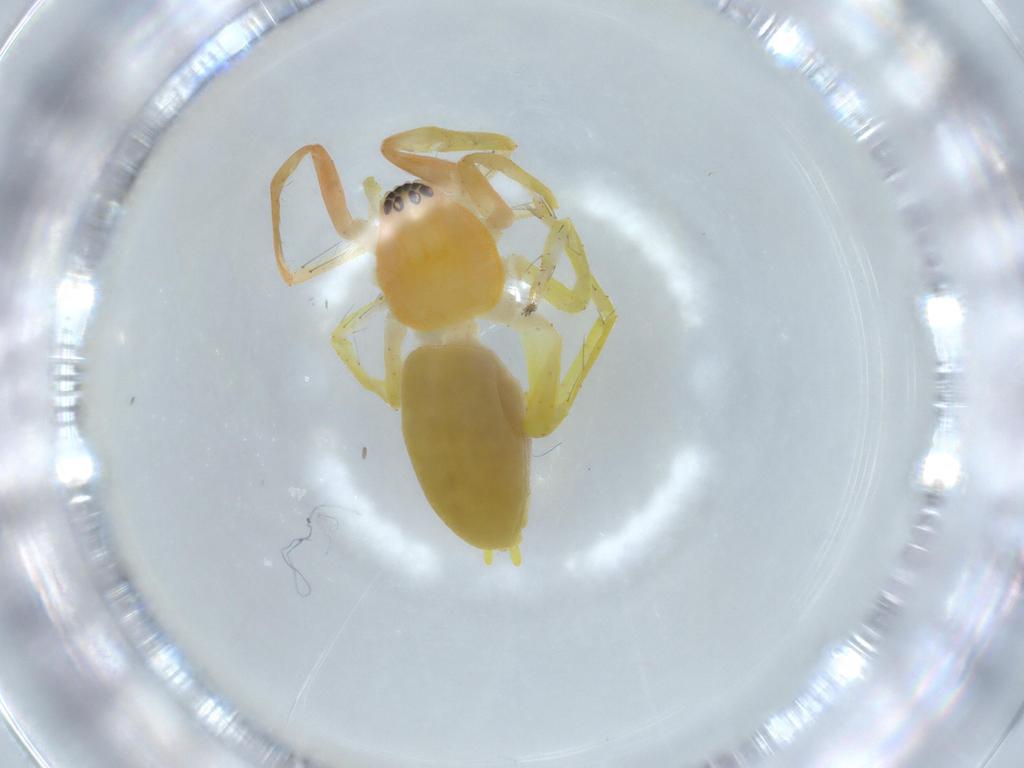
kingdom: Animalia
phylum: Arthropoda
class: Arachnida
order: Araneae
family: Anyphaenidae
